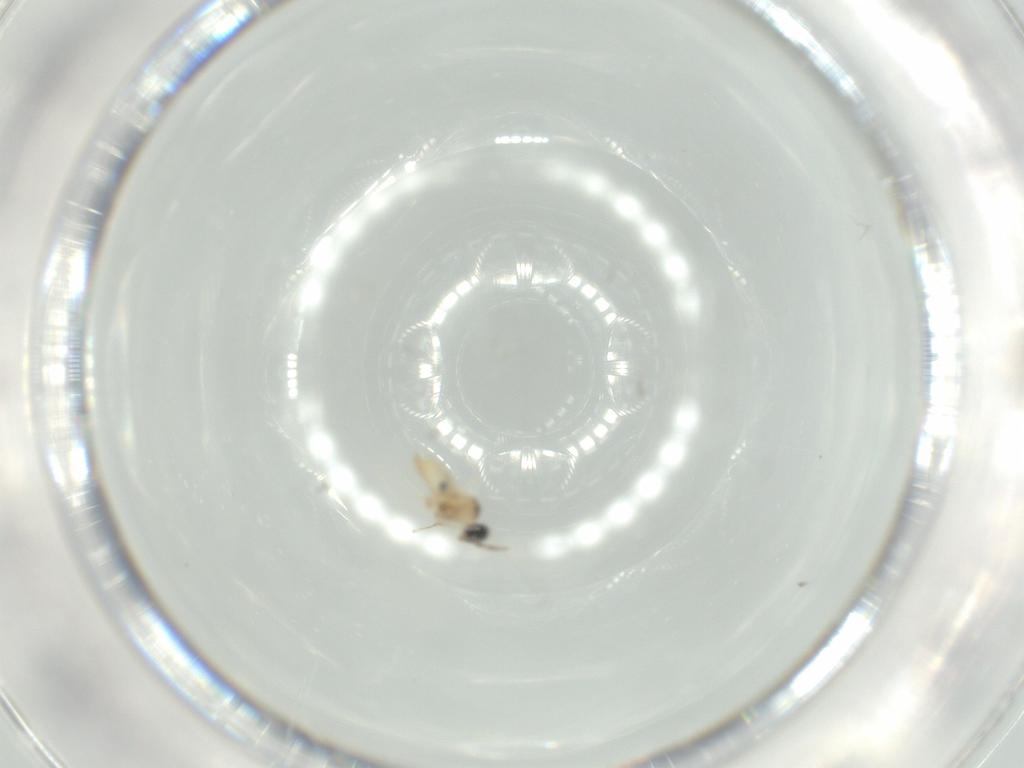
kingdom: Animalia
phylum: Arthropoda
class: Insecta
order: Diptera
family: Cecidomyiidae
